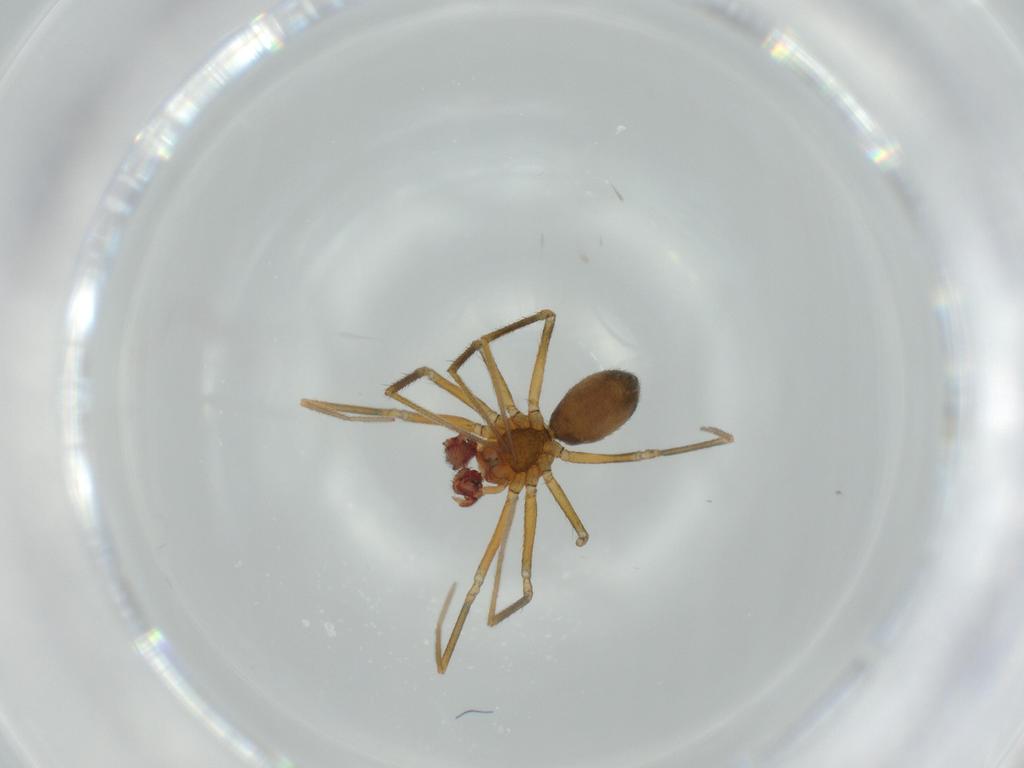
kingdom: Animalia
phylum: Arthropoda
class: Arachnida
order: Araneae
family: Linyphiidae
